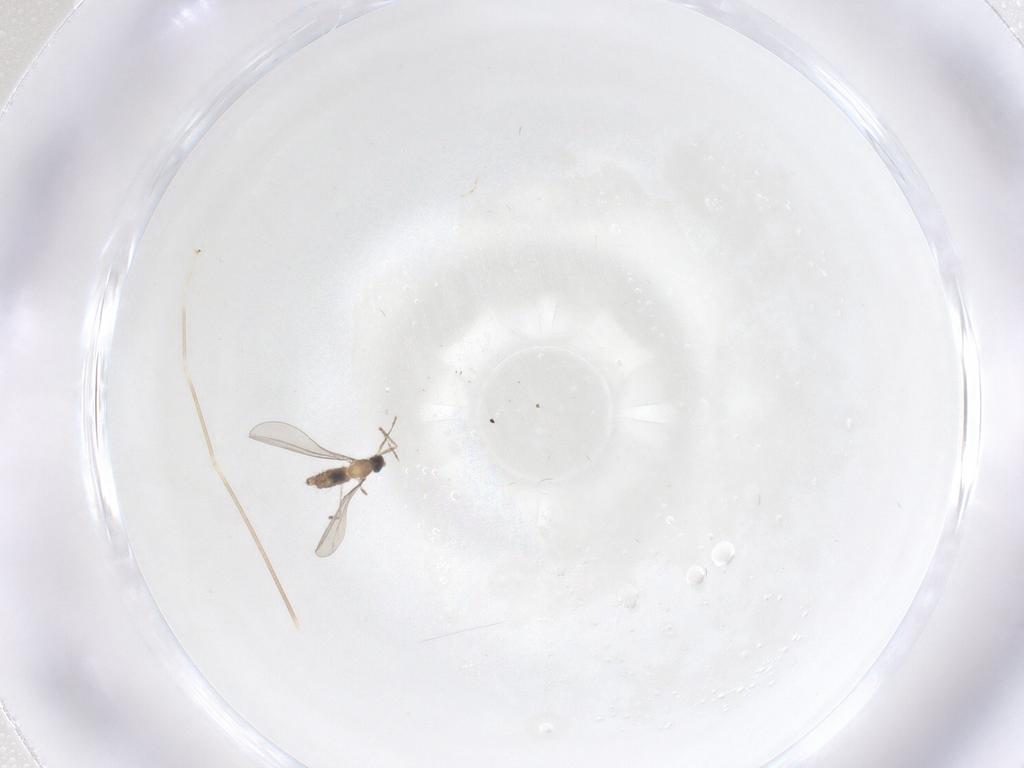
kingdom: Animalia
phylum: Arthropoda
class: Insecta
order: Diptera
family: Cecidomyiidae
